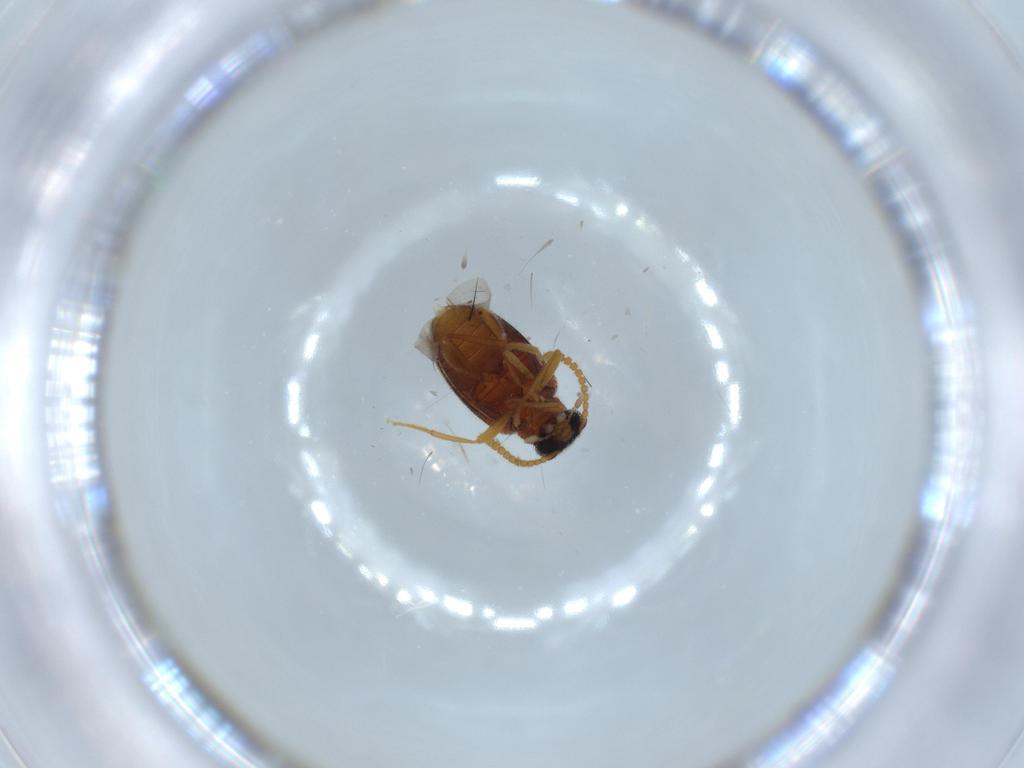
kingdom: Animalia
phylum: Arthropoda
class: Insecta
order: Coleoptera
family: Aderidae
